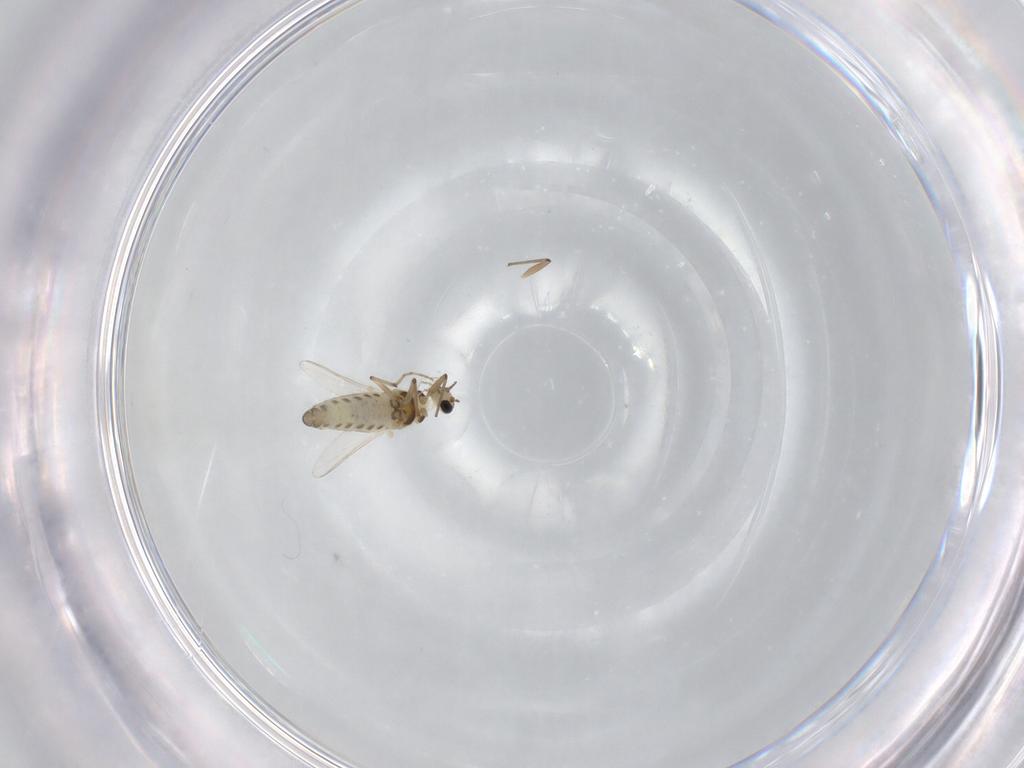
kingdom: Animalia
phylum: Arthropoda
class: Insecta
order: Diptera
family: Chironomidae
